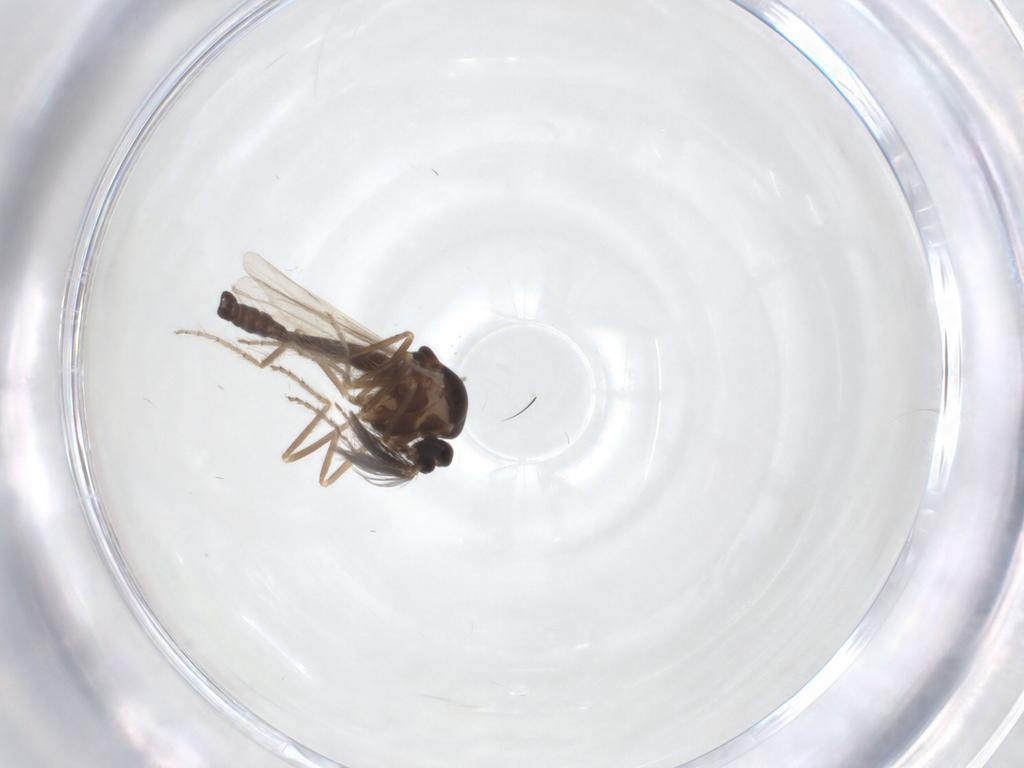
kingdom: Animalia
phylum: Arthropoda
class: Insecta
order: Diptera
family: Ceratopogonidae
